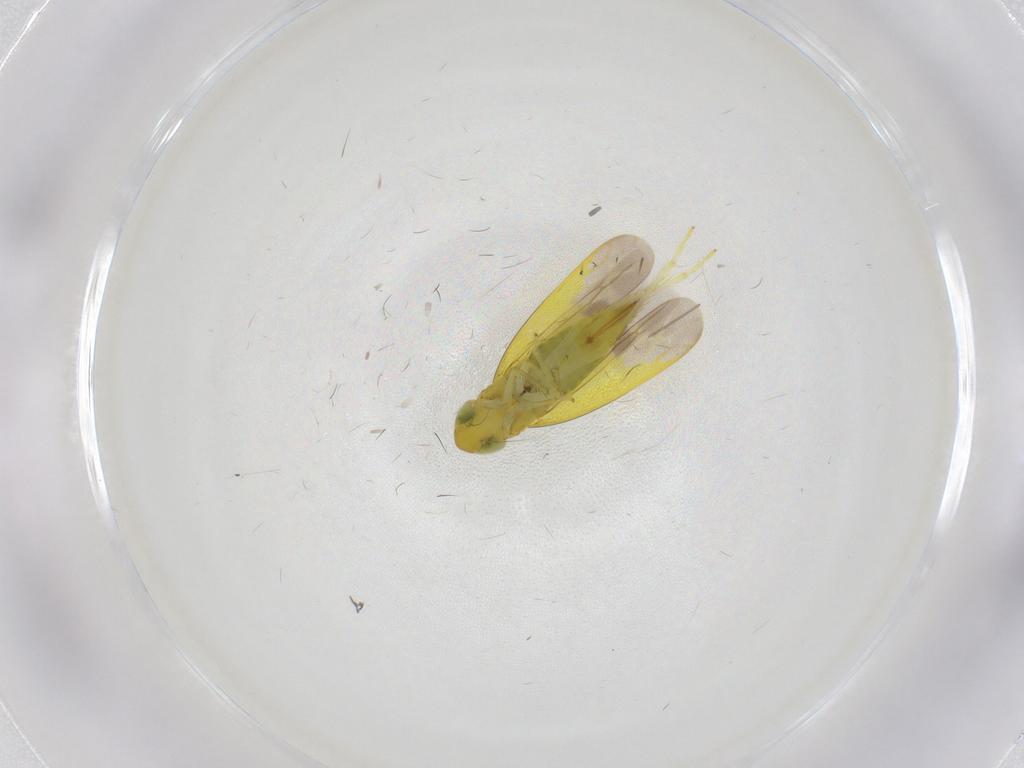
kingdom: Animalia
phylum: Arthropoda
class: Insecta
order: Hemiptera
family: Cicadellidae
